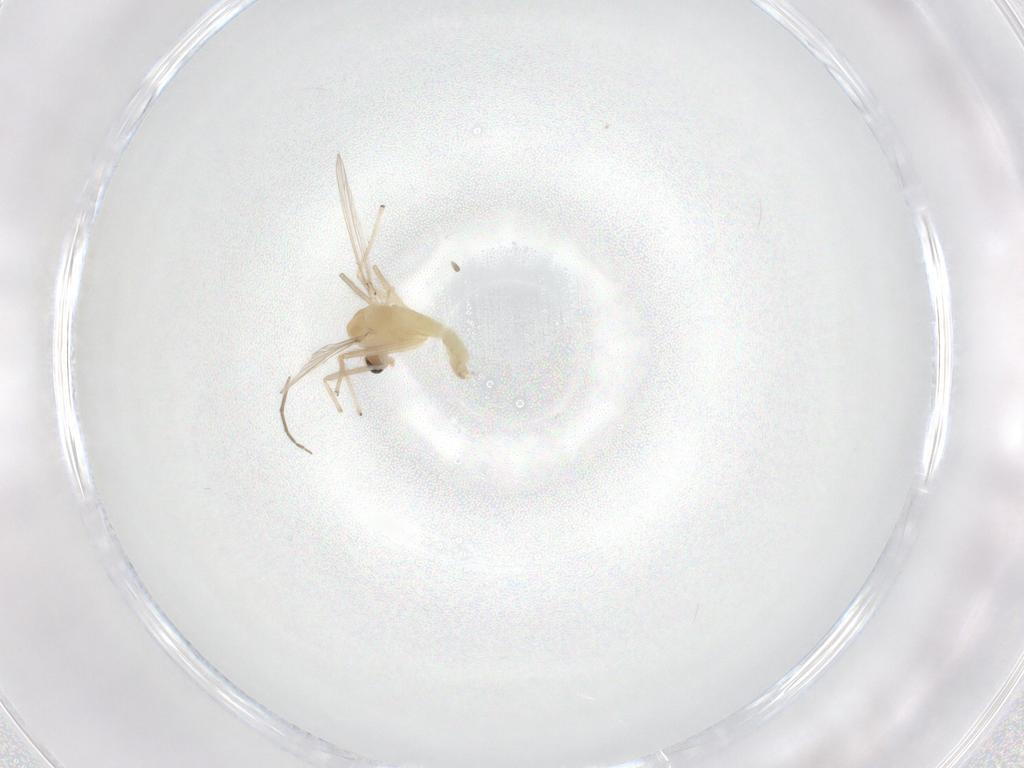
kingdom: Animalia
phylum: Arthropoda
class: Insecta
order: Diptera
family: Chironomidae
